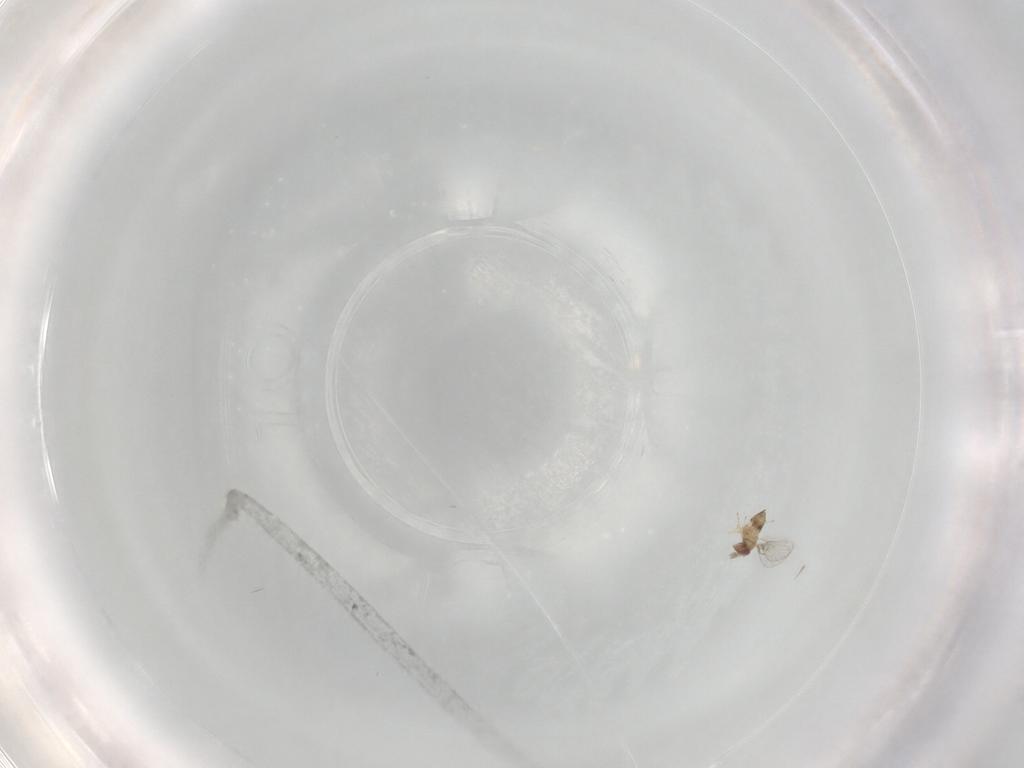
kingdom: Animalia
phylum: Arthropoda
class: Insecta
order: Hymenoptera
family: Trichogrammatidae
